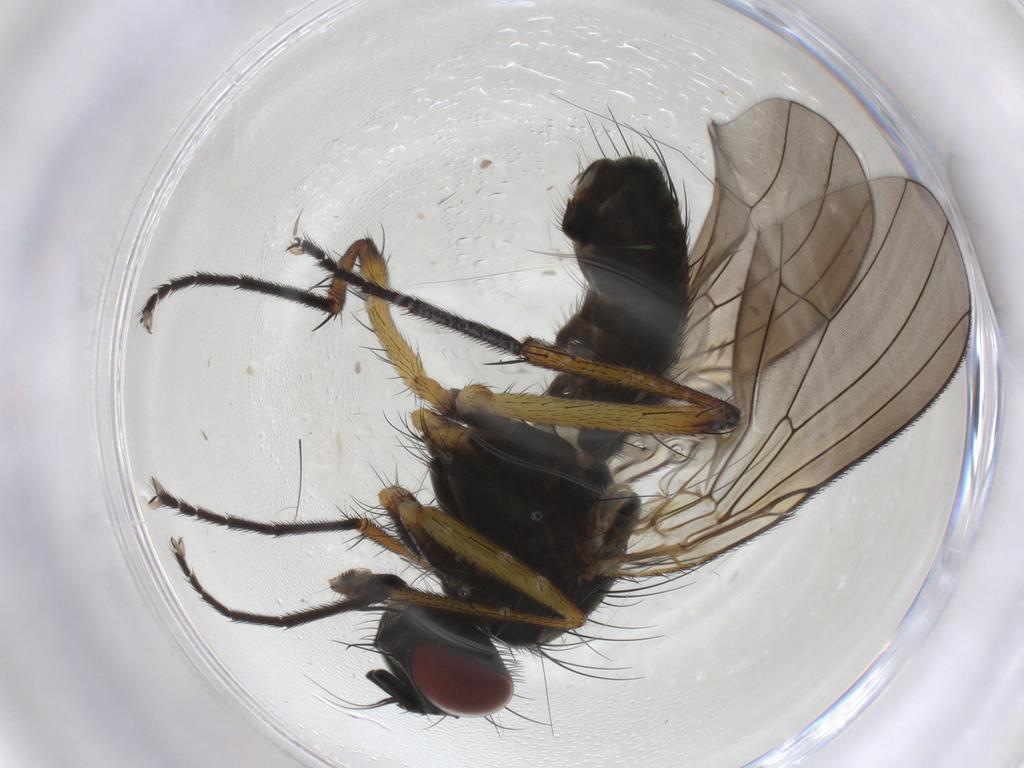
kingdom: Animalia
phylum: Arthropoda
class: Insecta
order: Diptera
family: Muscidae
